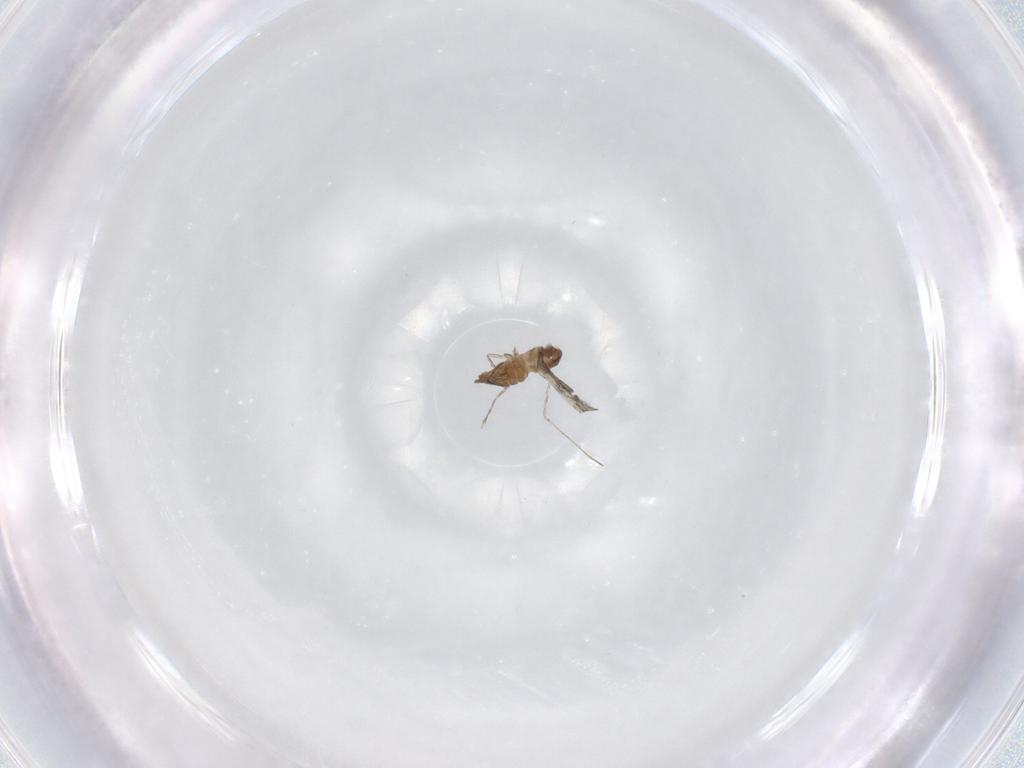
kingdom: Animalia
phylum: Arthropoda
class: Insecta
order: Diptera
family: Cecidomyiidae
